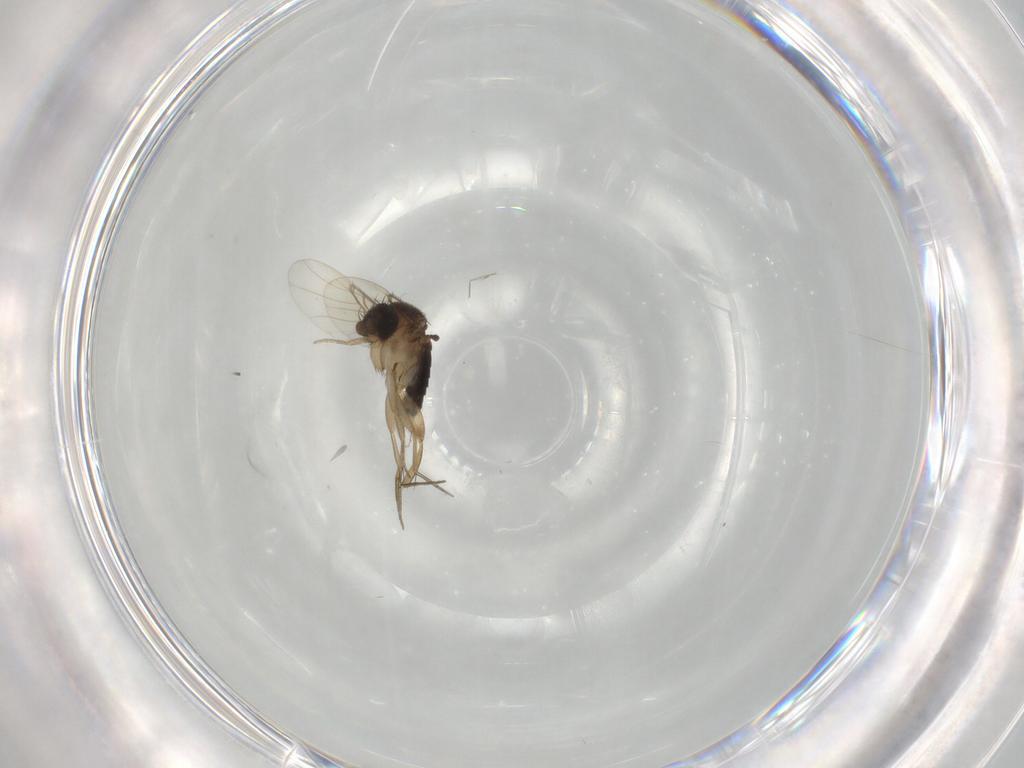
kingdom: Animalia
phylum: Arthropoda
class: Insecta
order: Diptera
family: Phoridae
